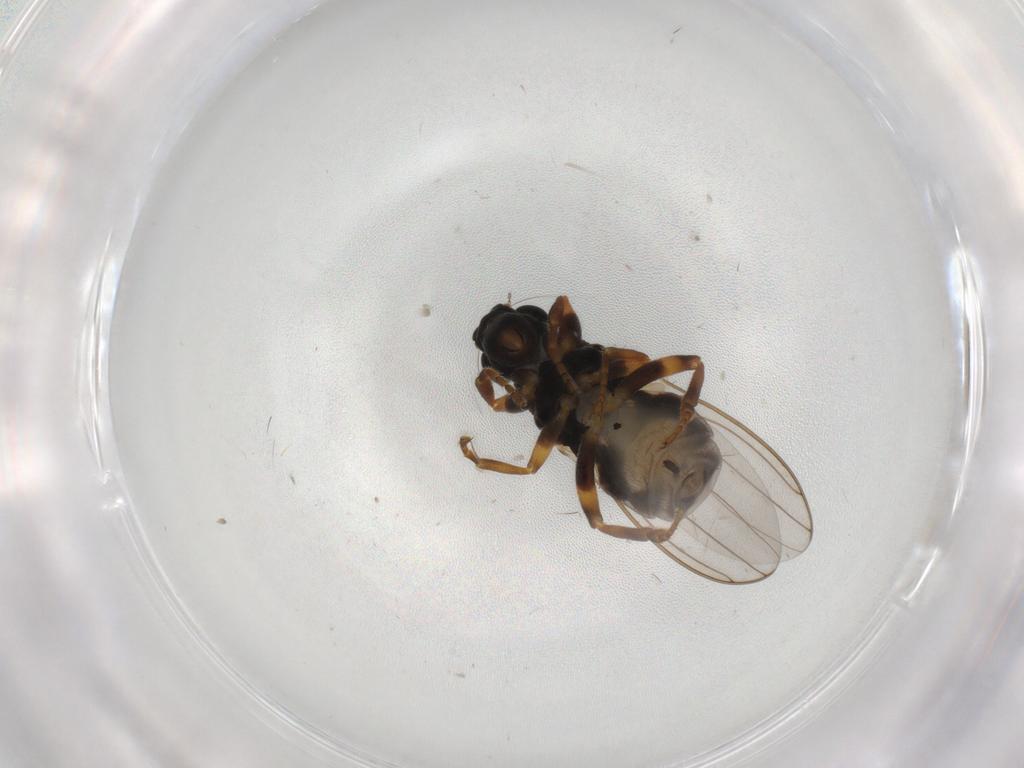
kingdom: Animalia
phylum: Arthropoda
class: Insecta
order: Diptera
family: Anthomyzidae
